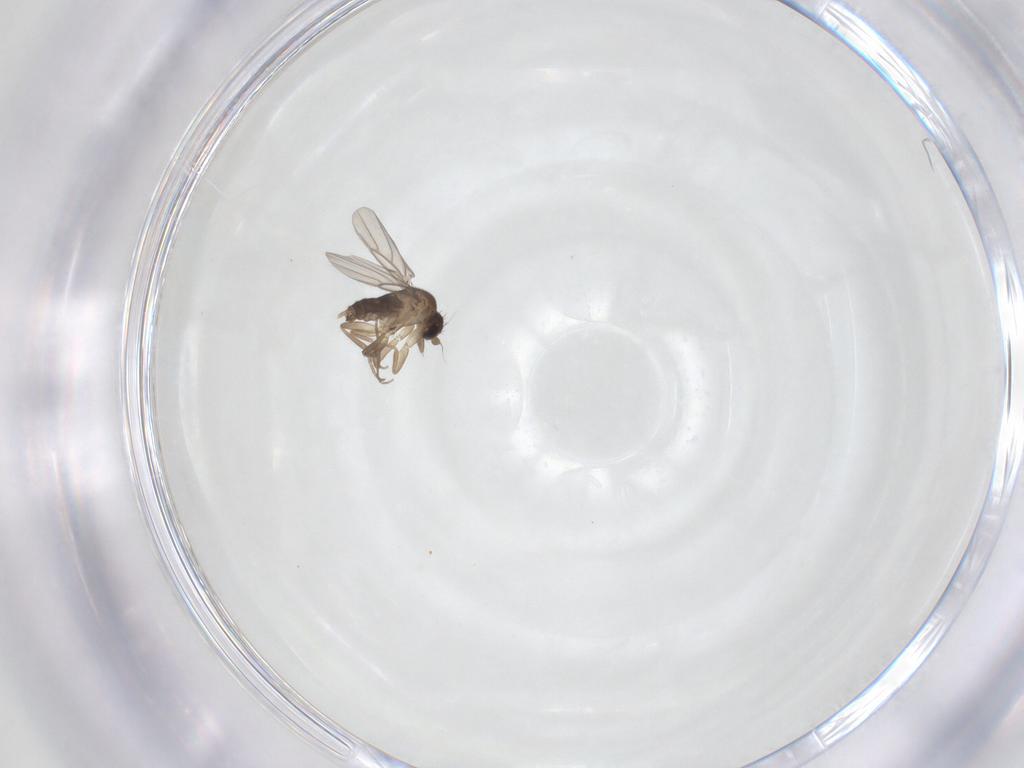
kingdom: Animalia
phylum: Arthropoda
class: Insecta
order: Diptera
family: Phoridae
